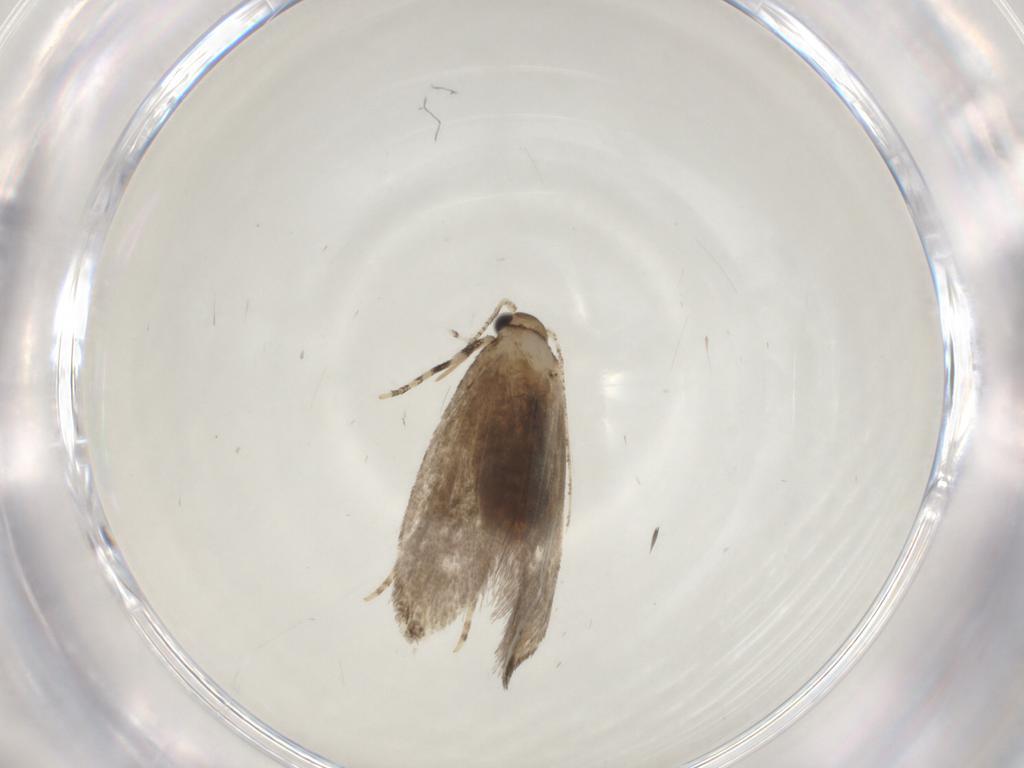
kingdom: Animalia
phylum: Arthropoda
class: Insecta
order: Lepidoptera
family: Tineidae
